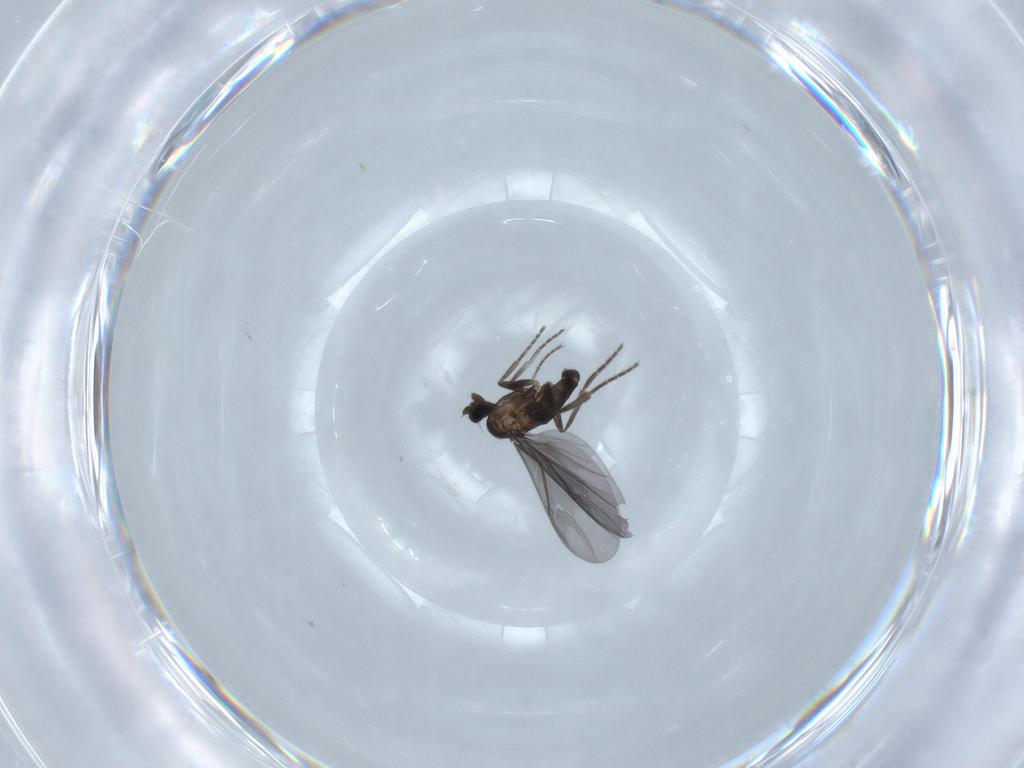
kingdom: Animalia
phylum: Arthropoda
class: Insecta
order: Diptera
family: Phoridae
